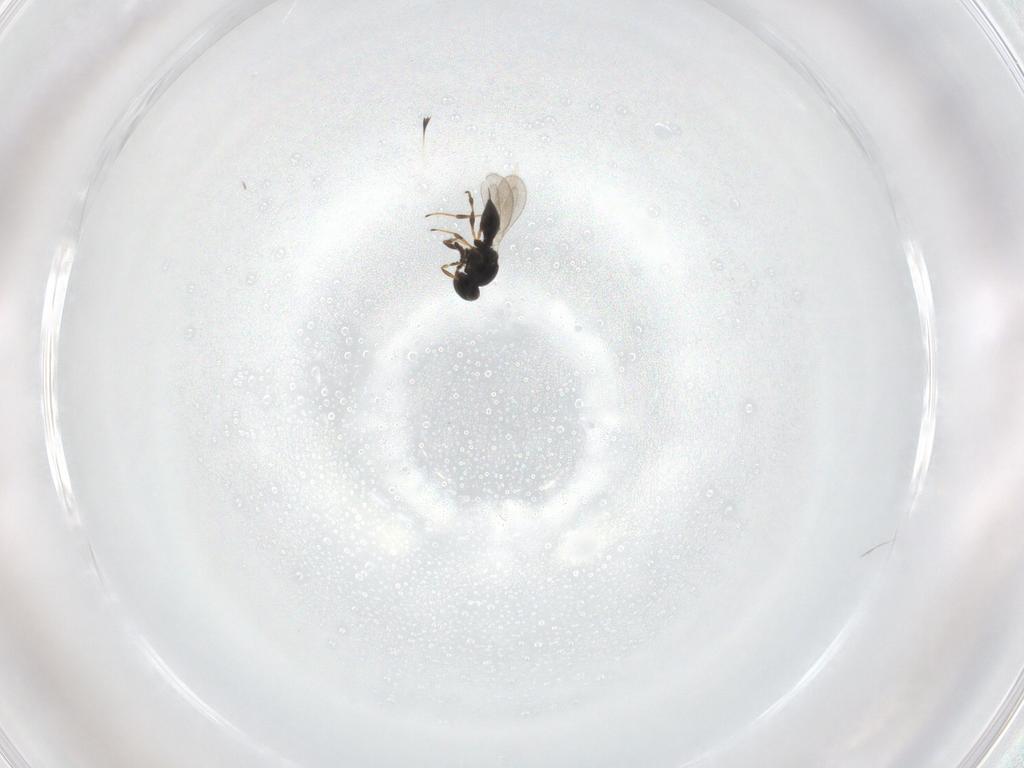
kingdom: Animalia
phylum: Arthropoda
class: Insecta
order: Hymenoptera
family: Platygastridae
